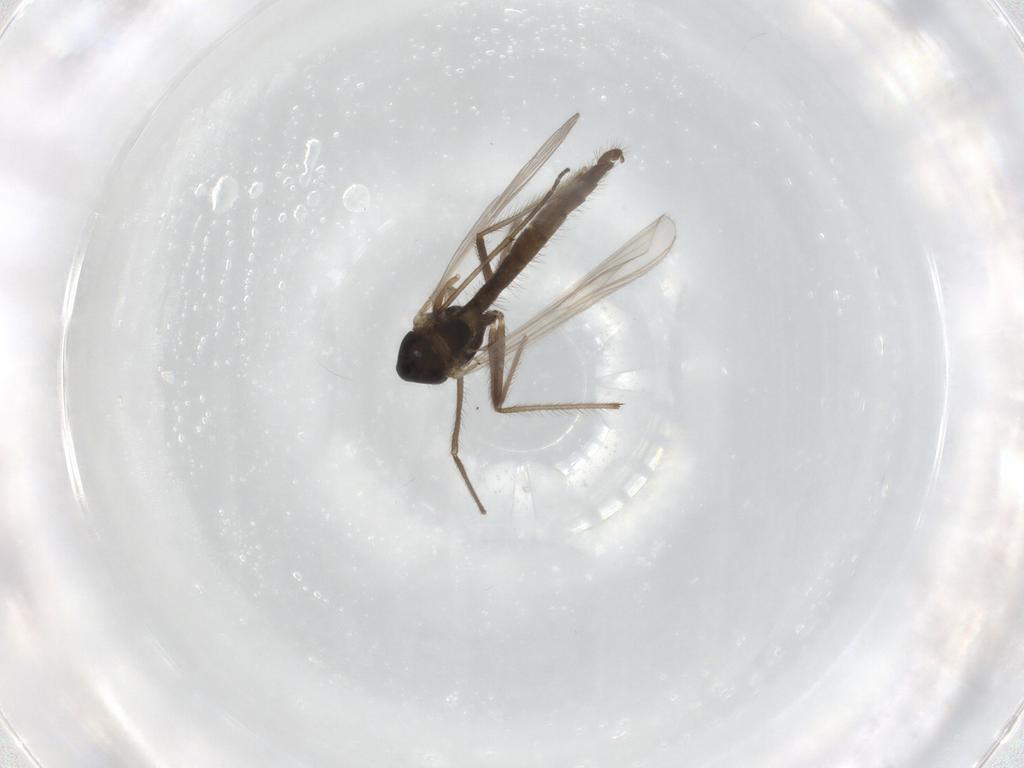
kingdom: Animalia
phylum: Arthropoda
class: Insecta
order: Diptera
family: Chironomidae
